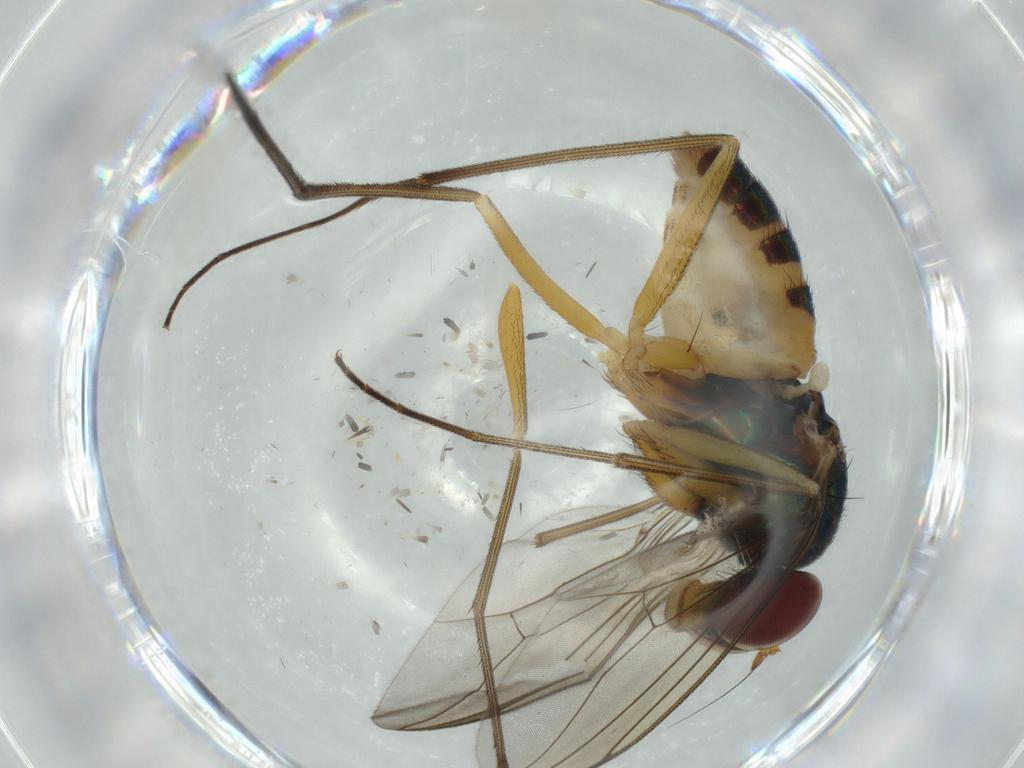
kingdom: Animalia
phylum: Arthropoda
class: Insecta
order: Diptera
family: Dolichopodidae
